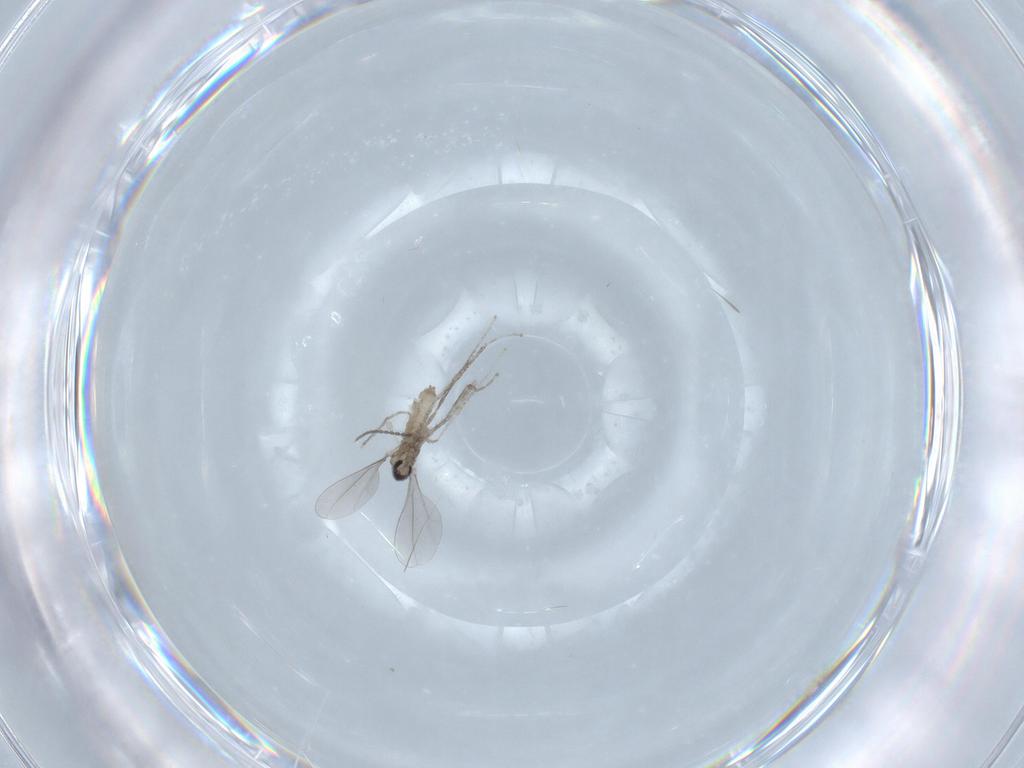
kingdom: Animalia
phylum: Arthropoda
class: Insecta
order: Diptera
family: Cecidomyiidae
